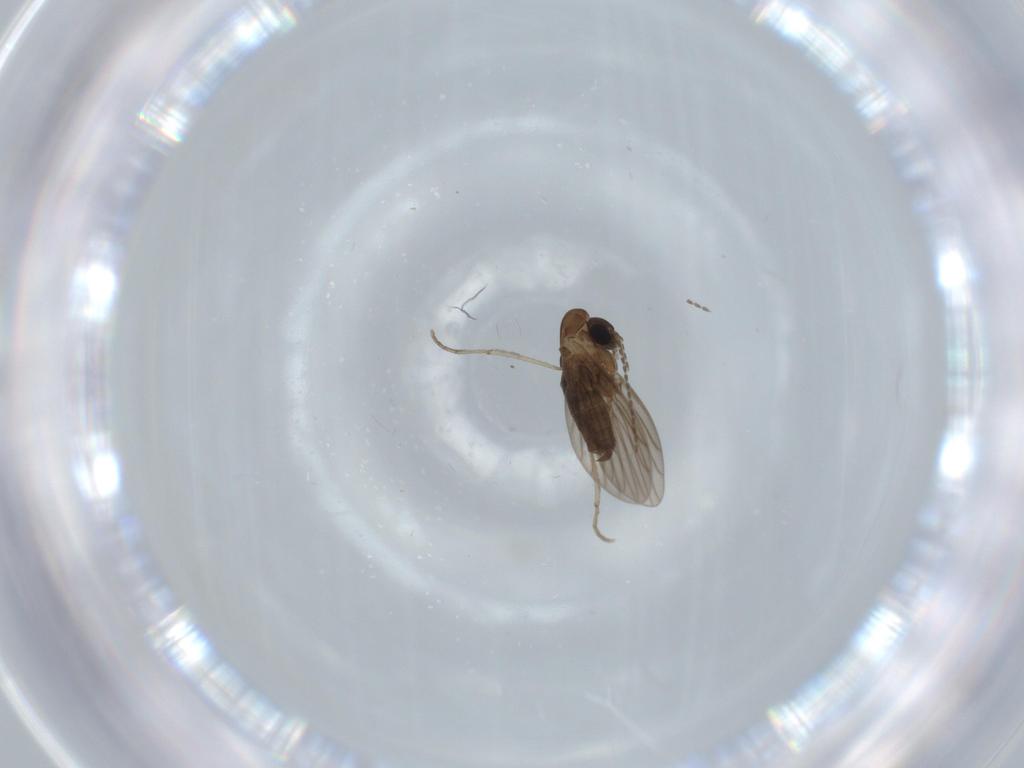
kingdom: Animalia
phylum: Arthropoda
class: Insecta
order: Diptera
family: Psychodidae
